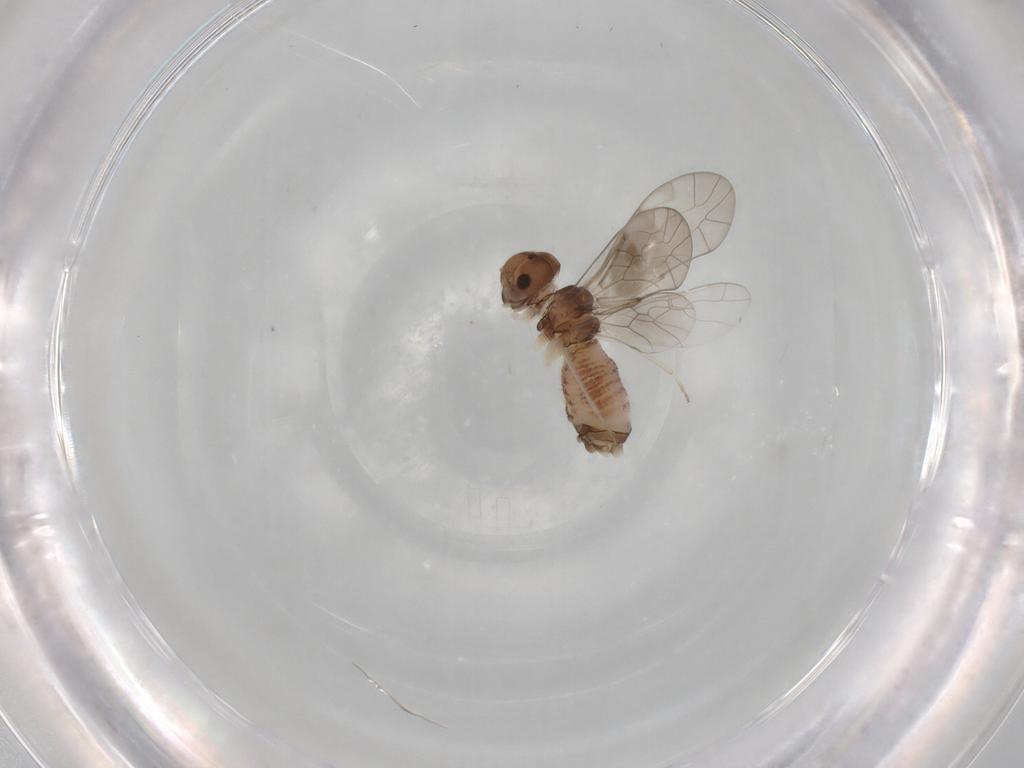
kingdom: Animalia
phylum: Arthropoda
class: Insecta
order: Psocodea
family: Peripsocidae
